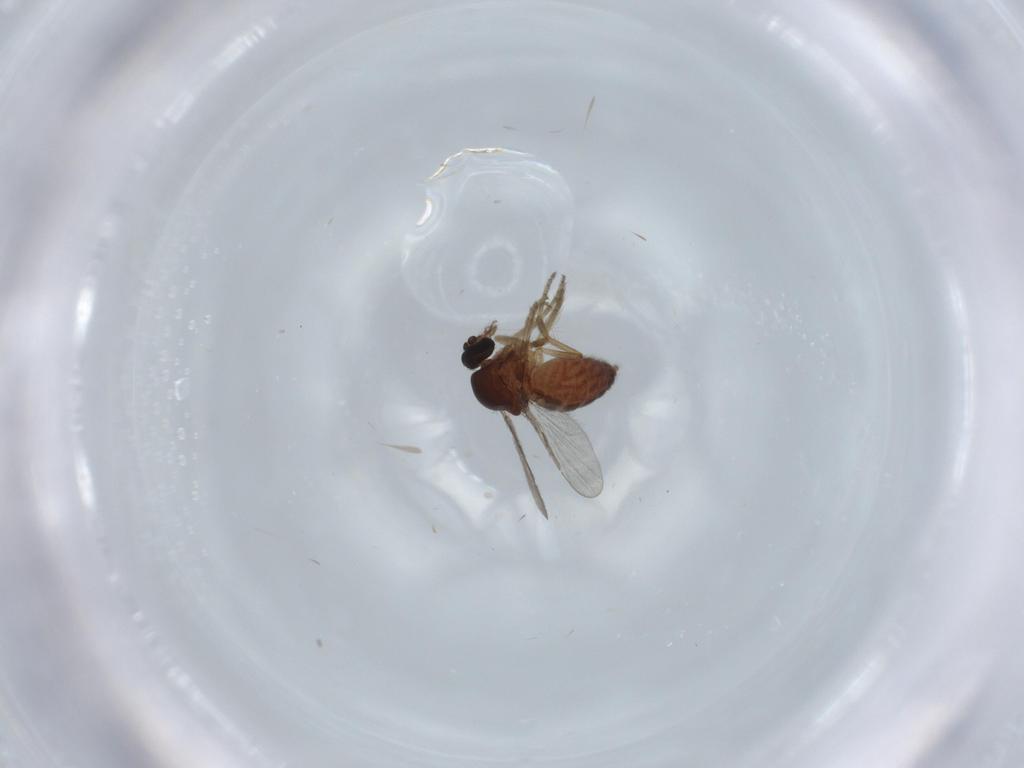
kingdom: Animalia
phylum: Arthropoda
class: Insecta
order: Diptera
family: Ceratopogonidae
